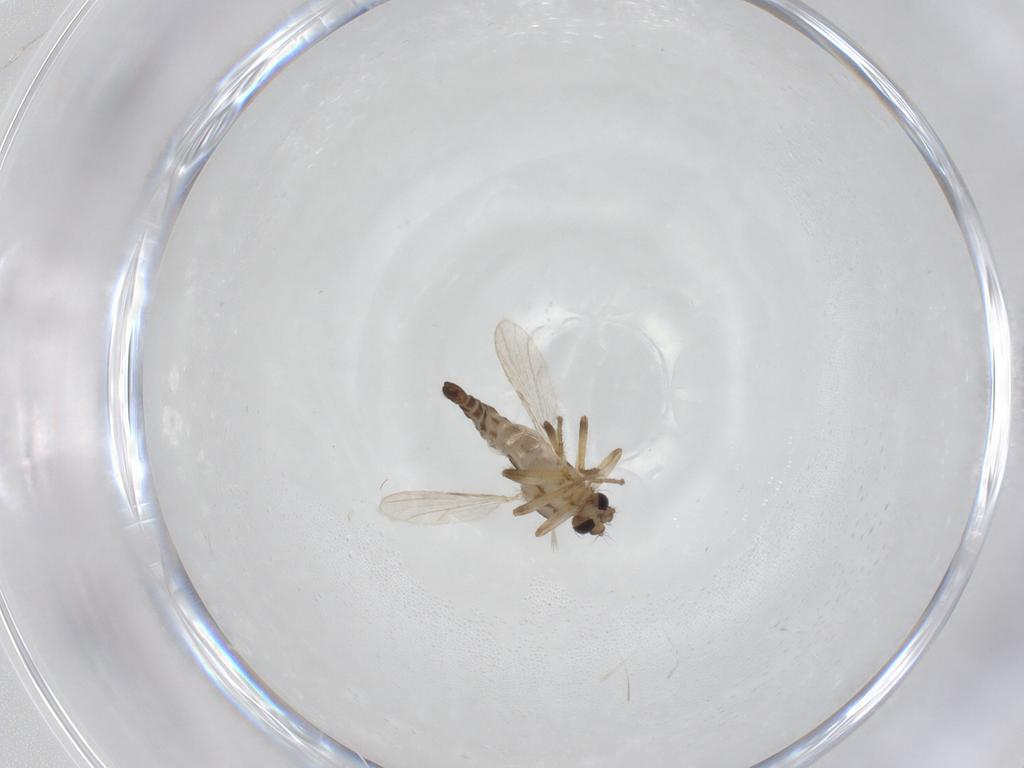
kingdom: Animalia
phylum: Arthropoda
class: Insecta
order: Diptera
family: Ceratopogonidae
